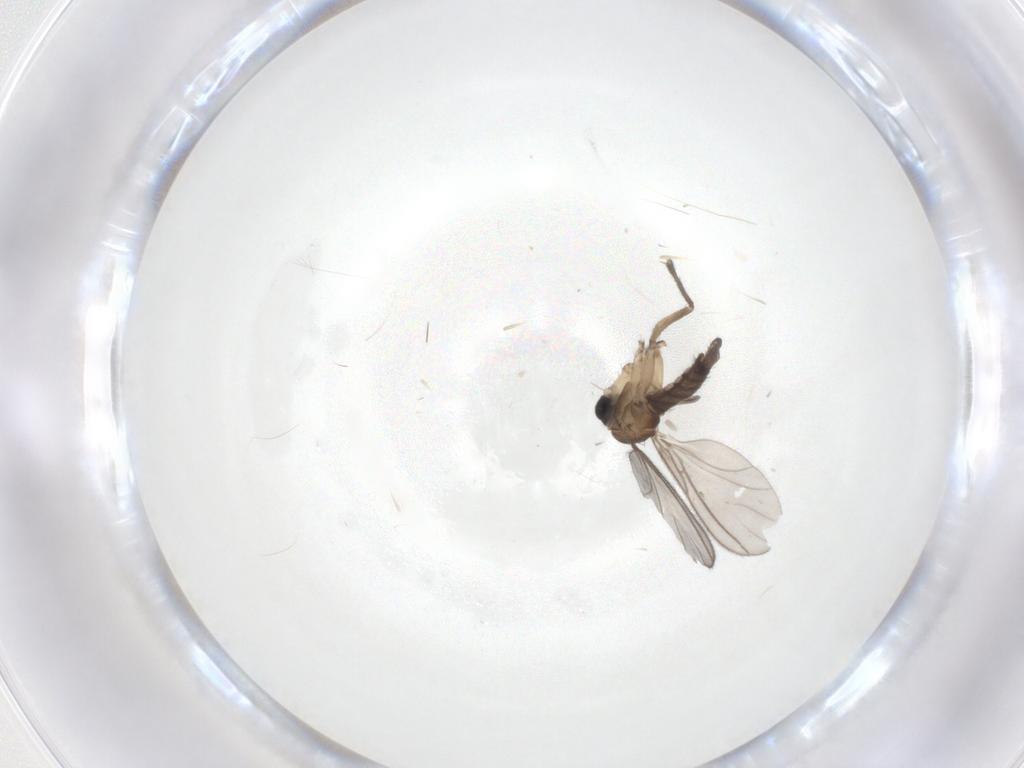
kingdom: Animalia
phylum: Arthropoda
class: Insecta
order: Diptera
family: Sciaridae
